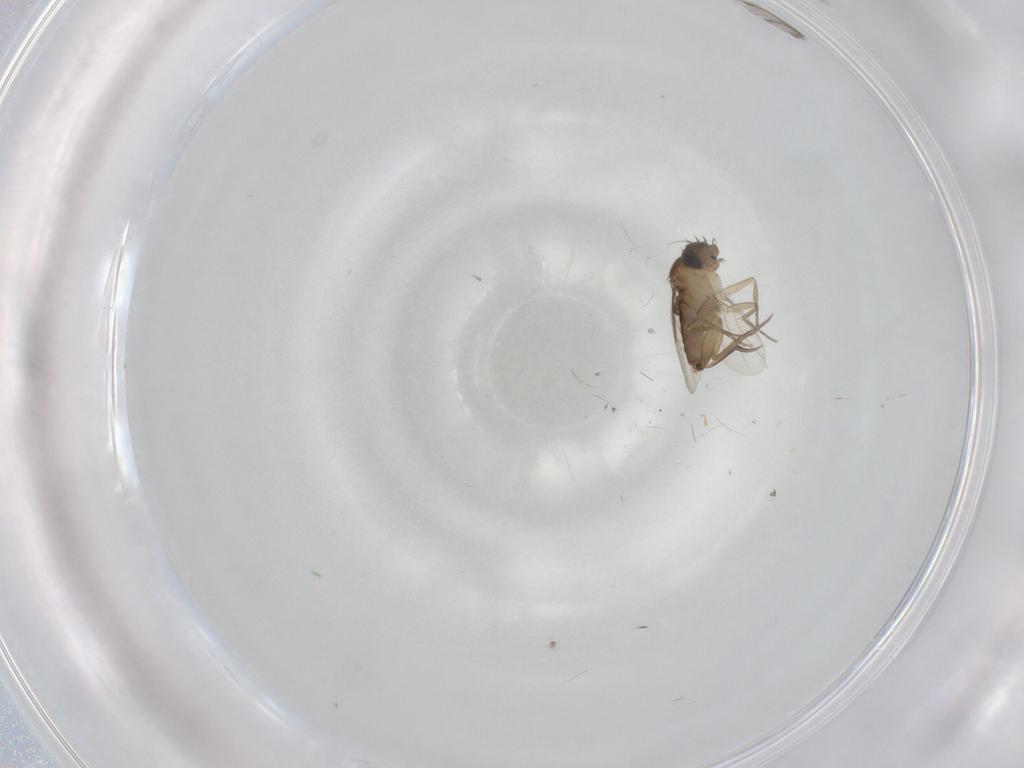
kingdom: Animalia
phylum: Arthropoda
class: Insecta
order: Diptera
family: Phoridae
